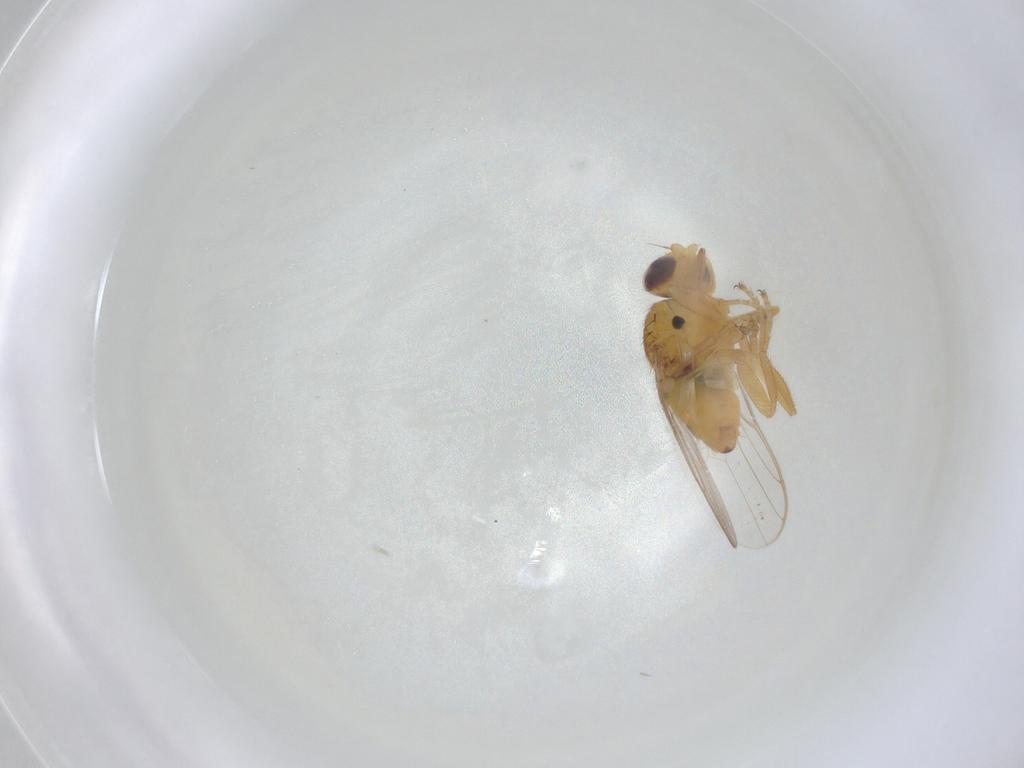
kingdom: Animalia
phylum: Arthropoda
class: Insecta
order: Diptera
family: Chloropidae
